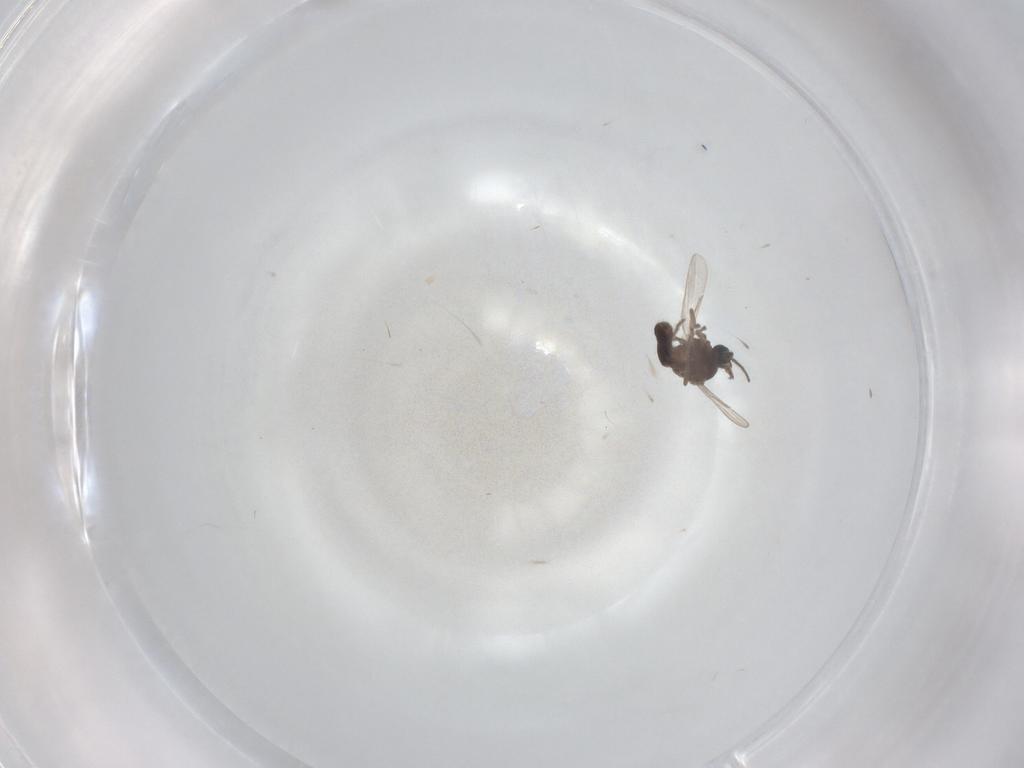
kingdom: Animalia
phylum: Arthropoda
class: Insecta
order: Diptera
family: Ceratopogonidae
